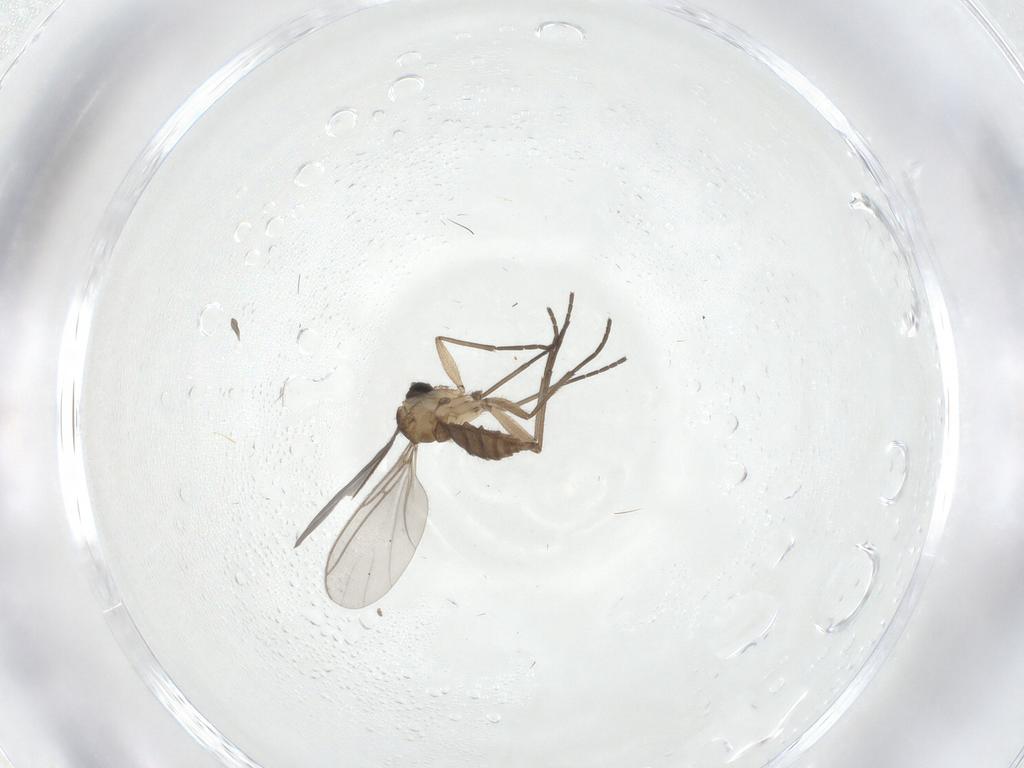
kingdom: Animalia
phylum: Arthropoda
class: Insecta
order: Diptera
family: Sciaridae
